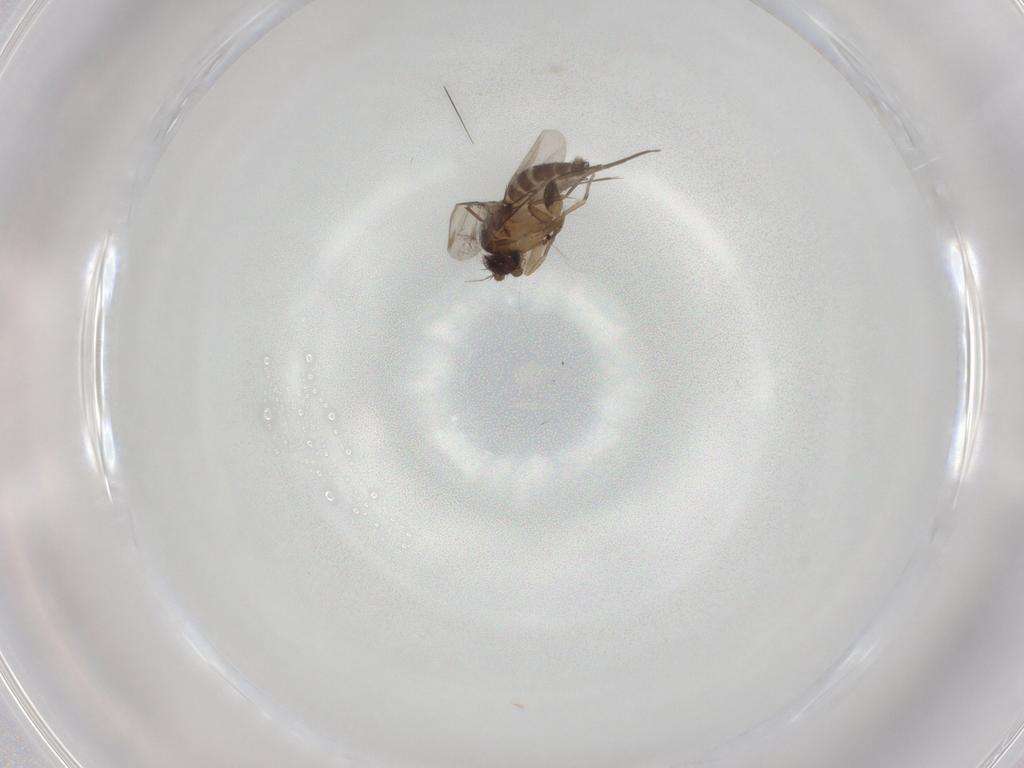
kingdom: Animalia
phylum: Arthropoda
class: Insecta
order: Diptera
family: Phoridae
